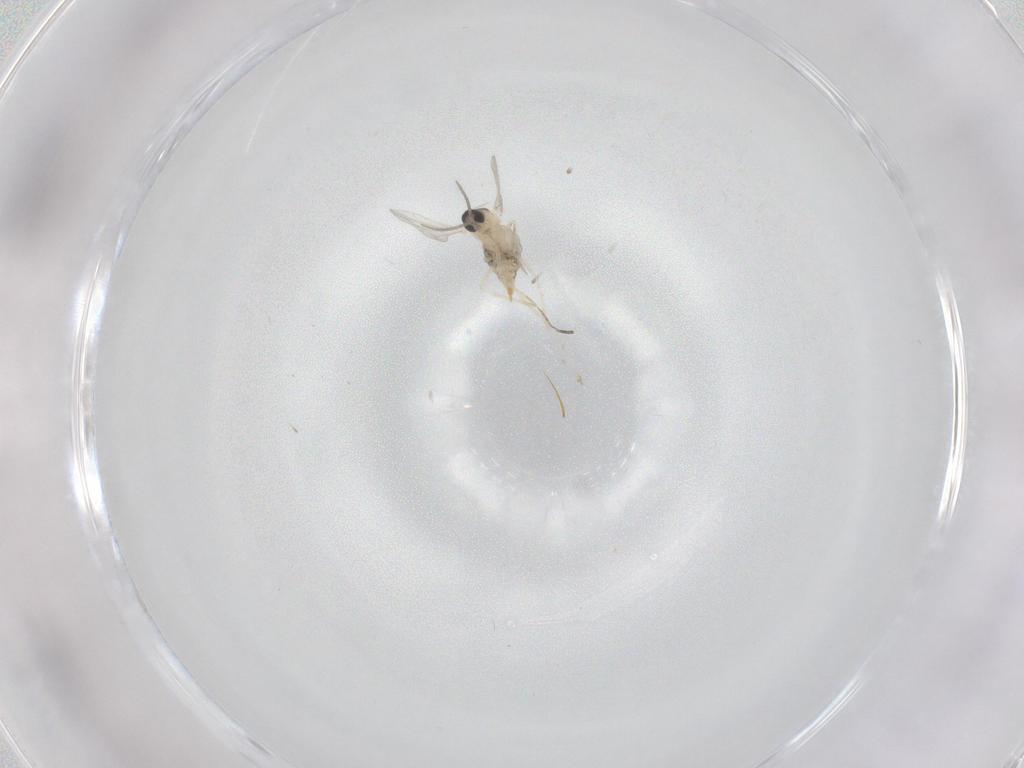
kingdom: Animalia
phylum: Arthropoda
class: Insecta
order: Diptera
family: Cecidomyiidae
